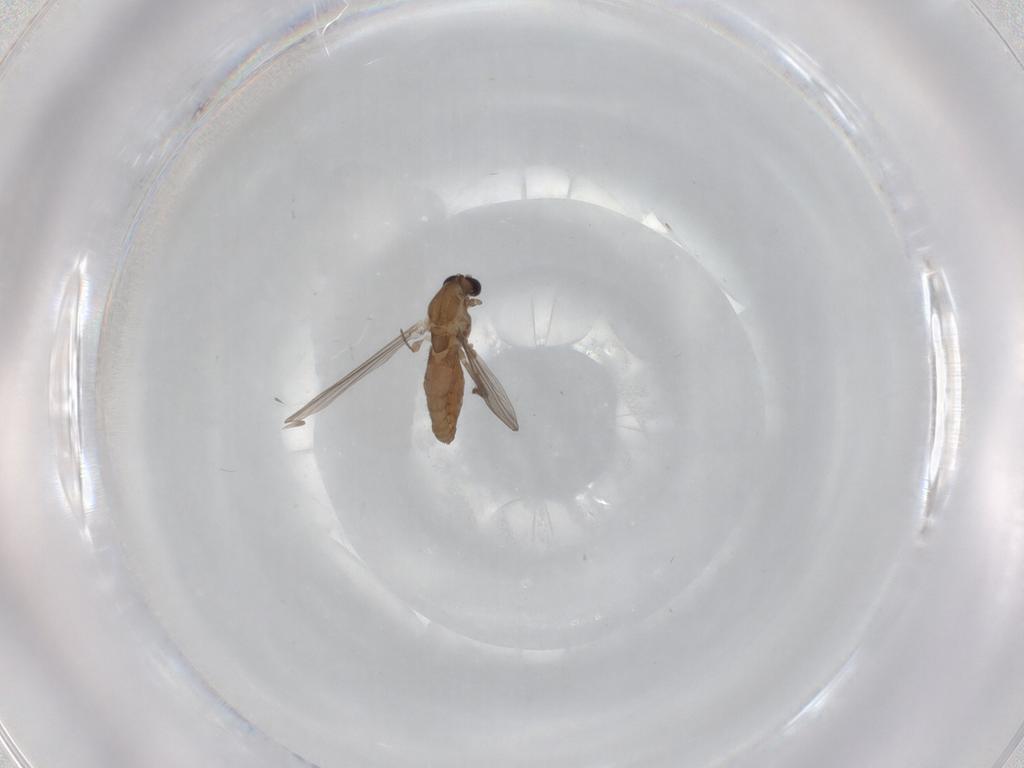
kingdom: Animalia
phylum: Arthropoda
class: Insecta
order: Diptera
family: Chironomidae
